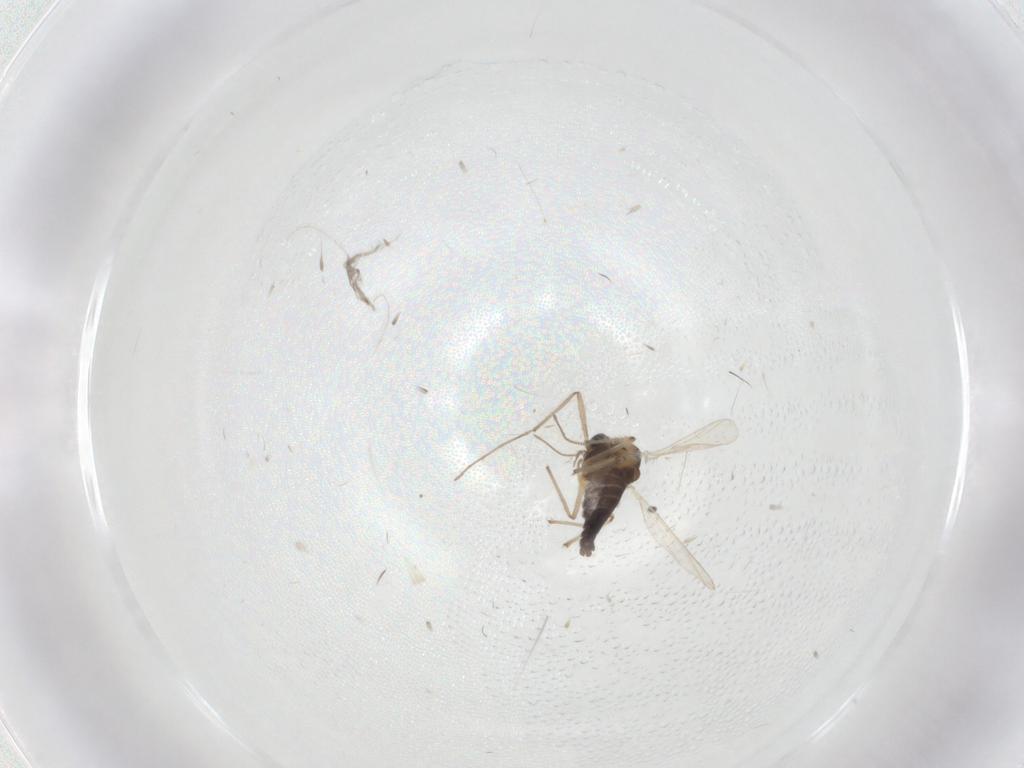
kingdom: Animalia
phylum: Arthropoda
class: Insecta
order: Diptera
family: Chironomidae
